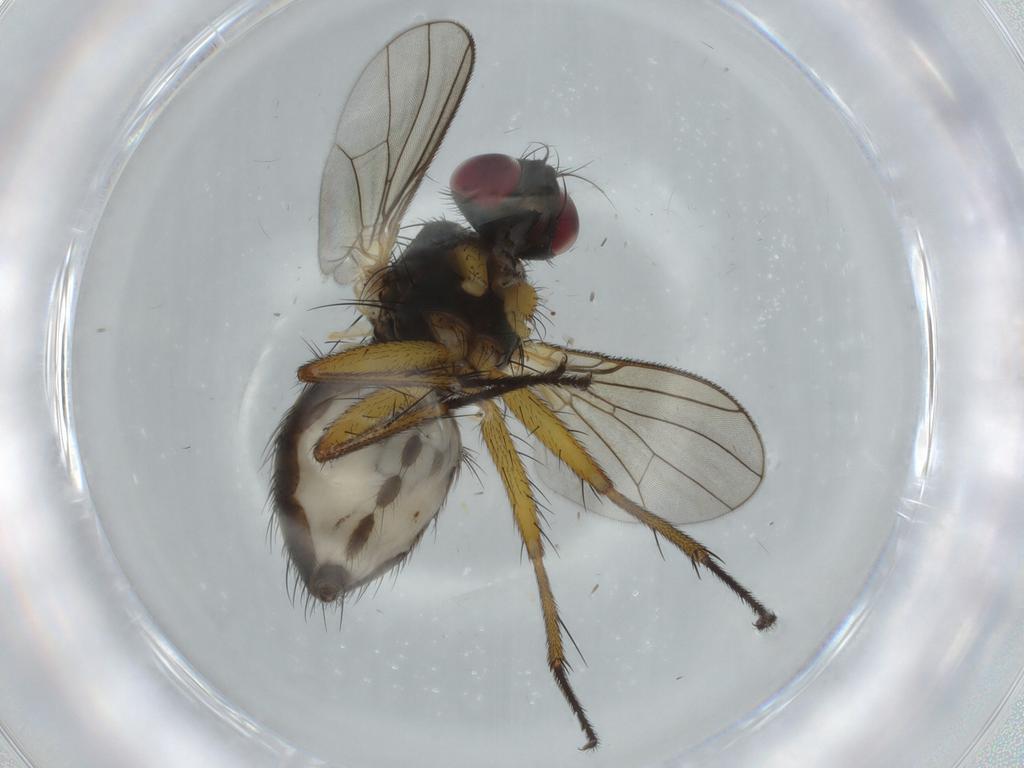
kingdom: Animalia
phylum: Arthropoda
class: Insecta
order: Diptera
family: Muscidae
